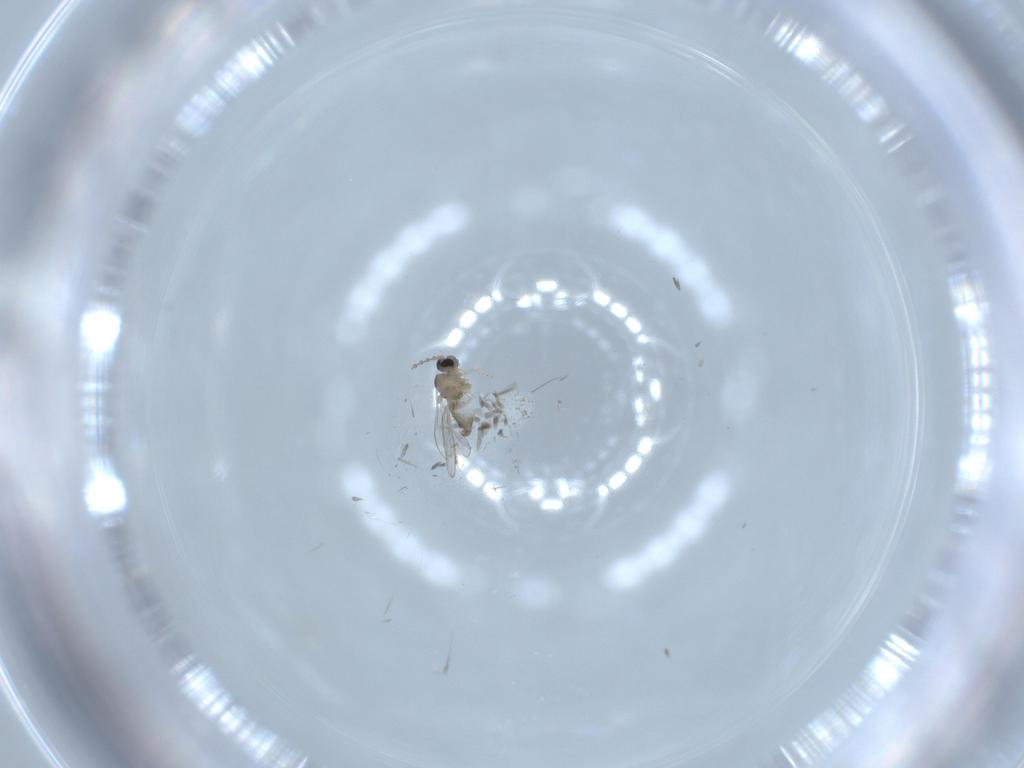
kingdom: Animalia
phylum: Arthropoda
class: Insecta
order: Diptera
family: Cecidomyiidae
